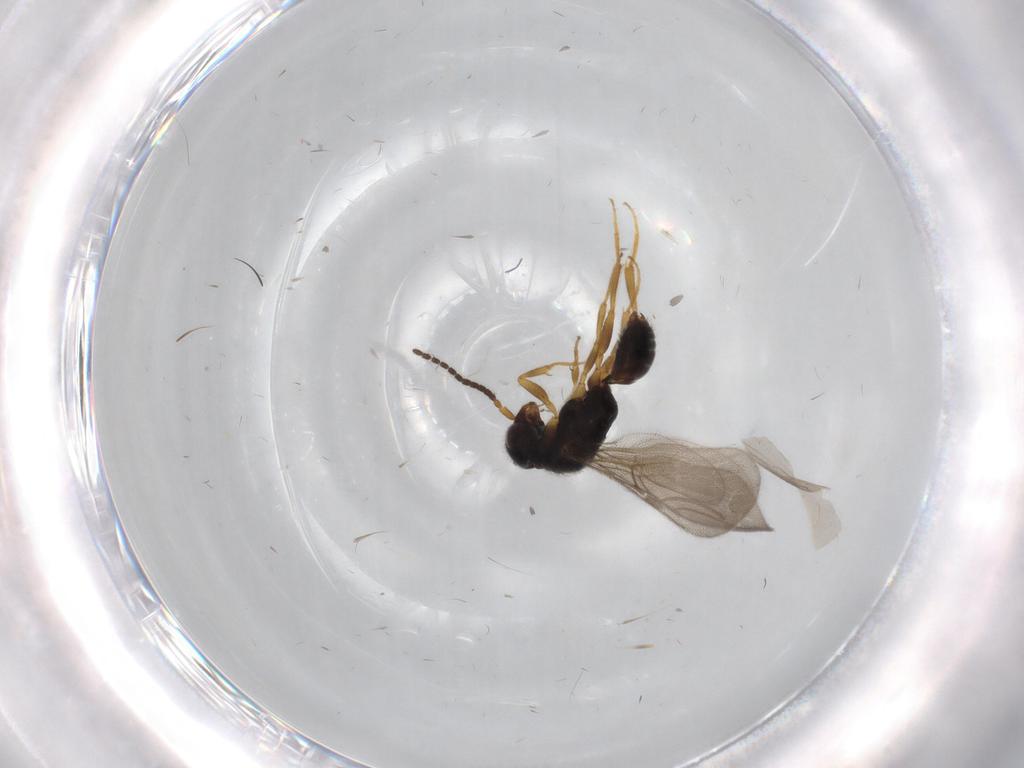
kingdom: Animalia
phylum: Arthropoda
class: Insecta
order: Hymenoptera
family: Bethylidae
